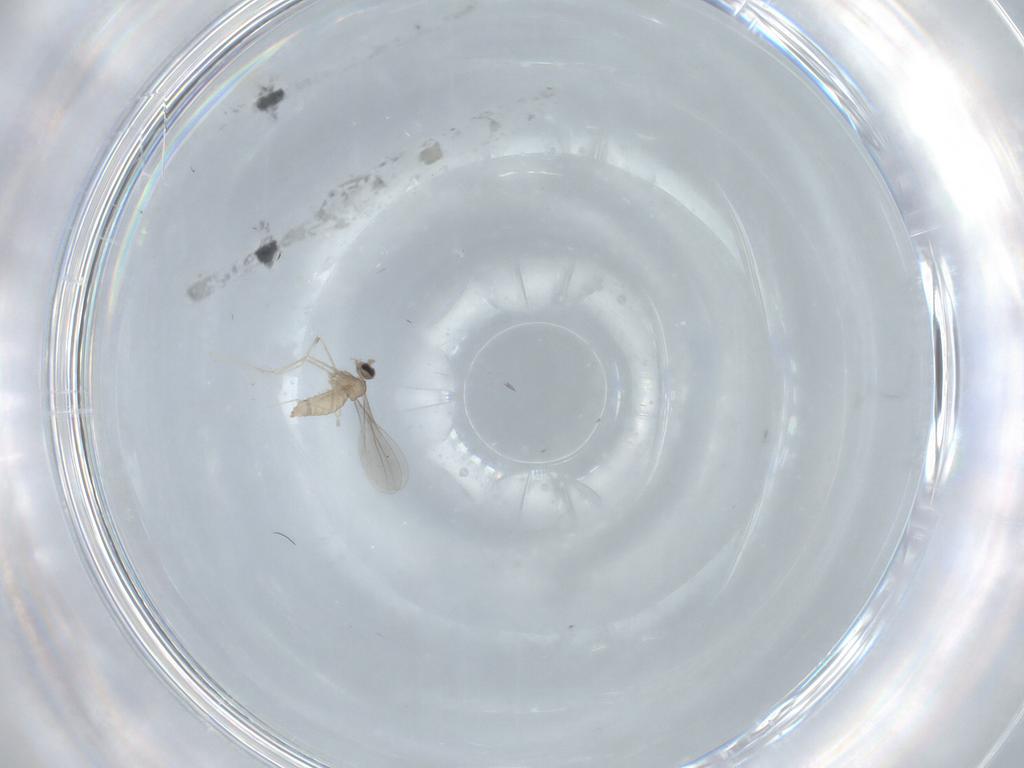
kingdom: Animalia
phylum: Arthropoda
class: Insecta
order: Diptera
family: Cecidomyiidae
